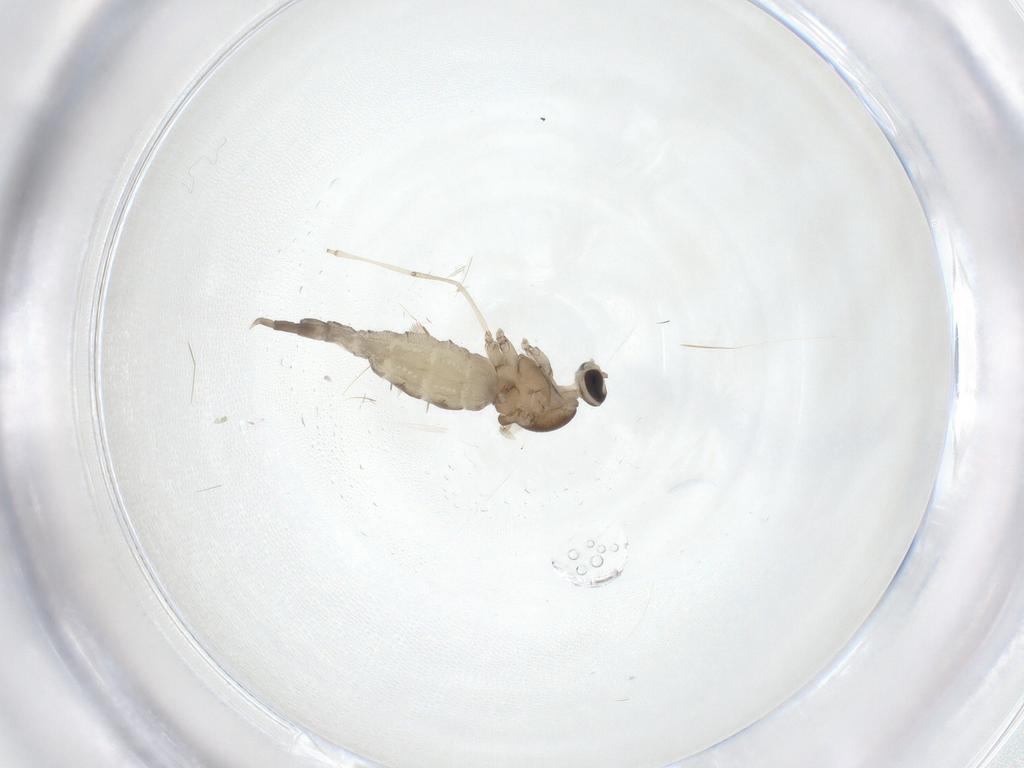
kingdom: Animalia
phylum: Arthropoda
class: Insecta
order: Diptera
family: Cecidomyiidae
